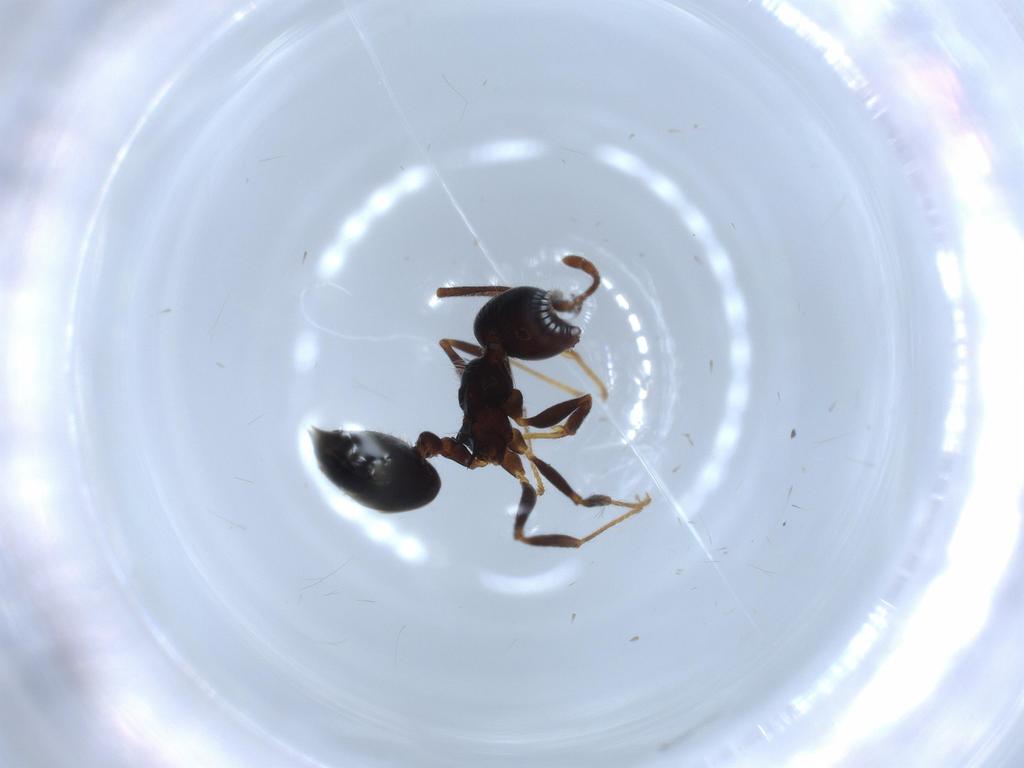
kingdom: Animalia
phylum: Arthropoda
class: Insecta
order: Hymenoptera
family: Formicidae
